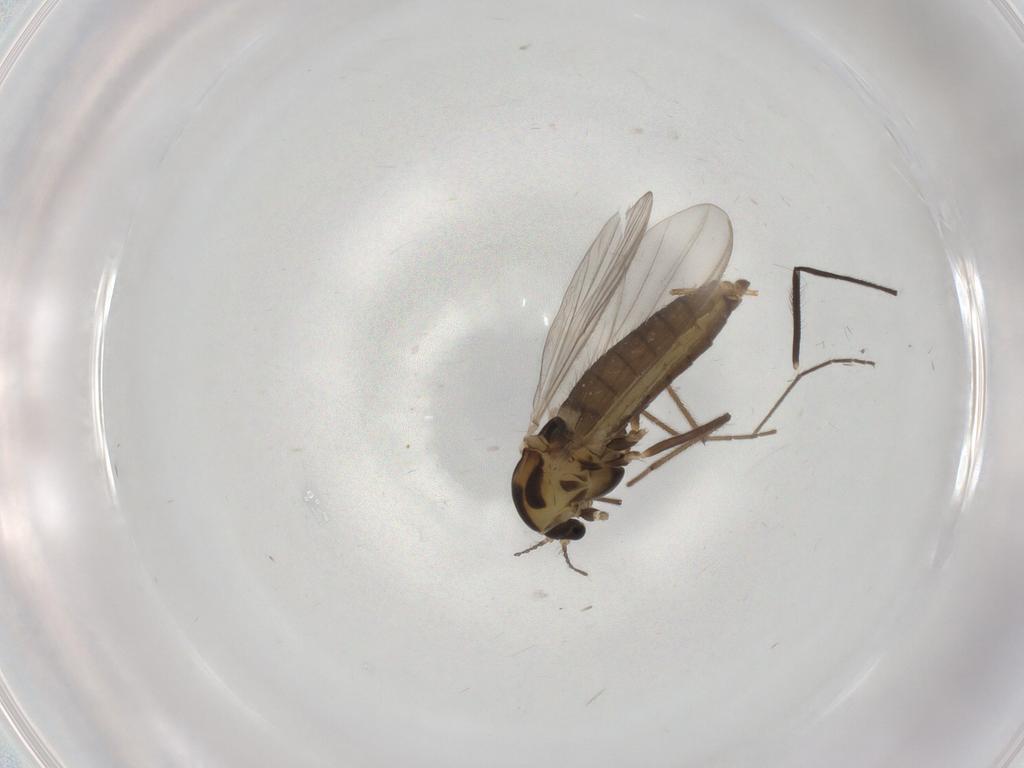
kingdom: Animalia
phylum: Arthropoda
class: Insecta
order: Diptera
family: Chironomidae
